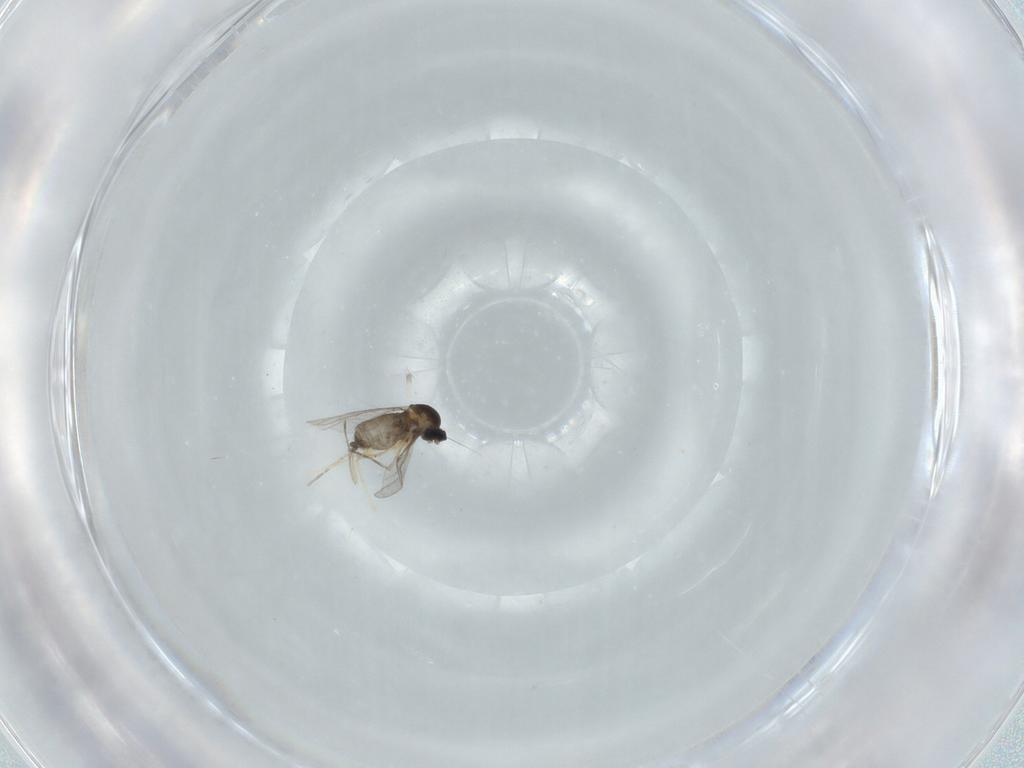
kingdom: Animalia
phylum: Arthropoda
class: Insecta
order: Diptera
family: Cecidomyiidae
